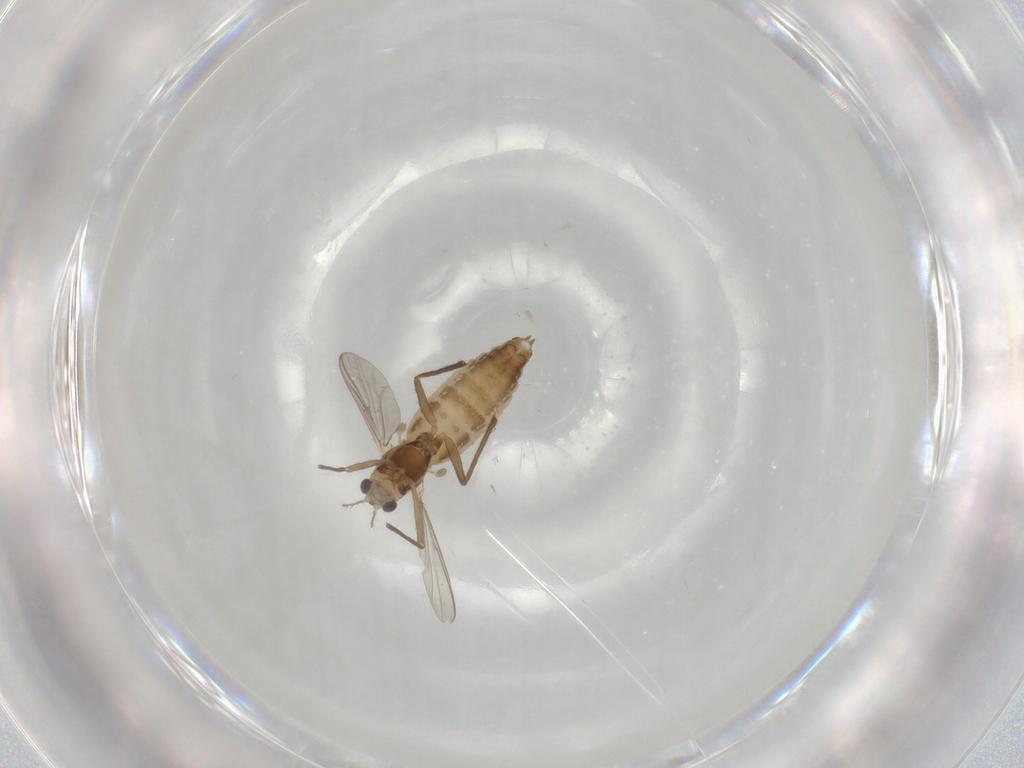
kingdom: Animalia
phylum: Arthropoda
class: Insecta
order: Diptera
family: Chironomidae
